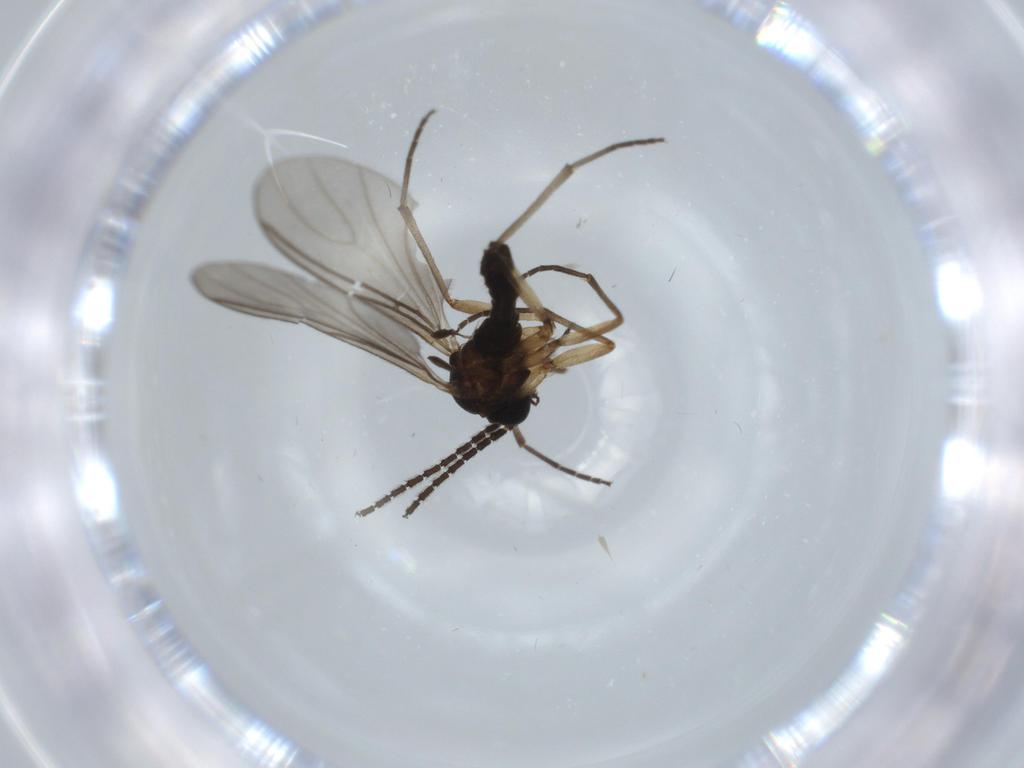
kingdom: Animalia
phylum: Arthropoda
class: Insecta
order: Diptera
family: Sciaridae
